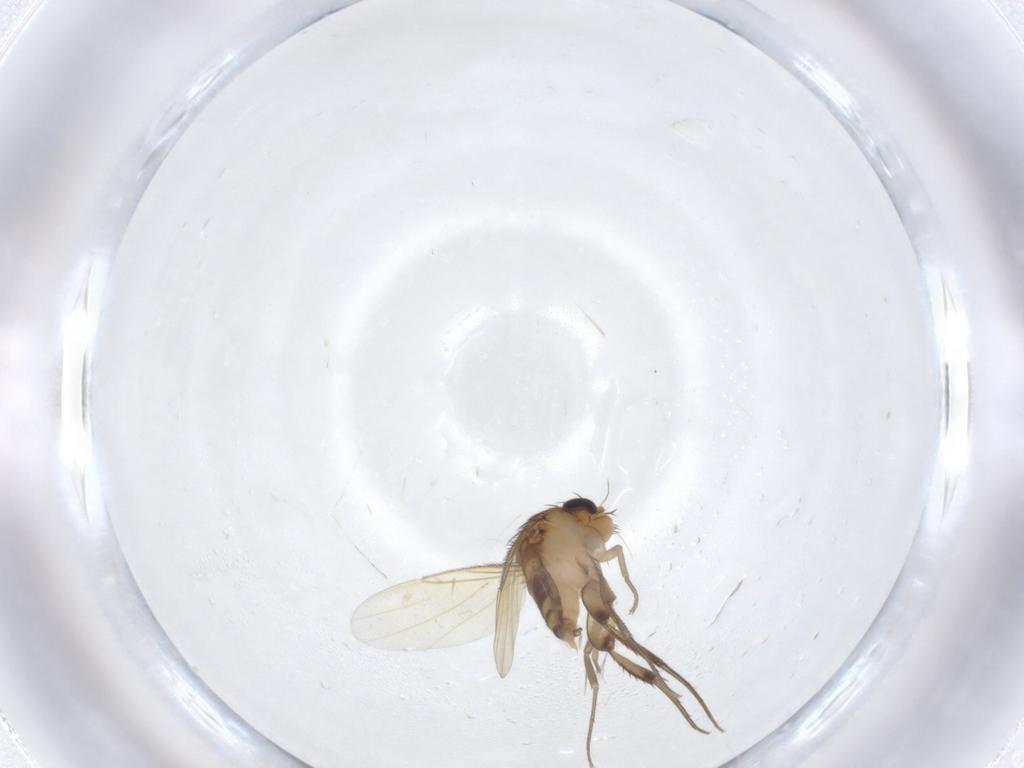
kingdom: Animalia
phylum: Arthropoda
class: Insecta
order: Diptera
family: Phoridae
